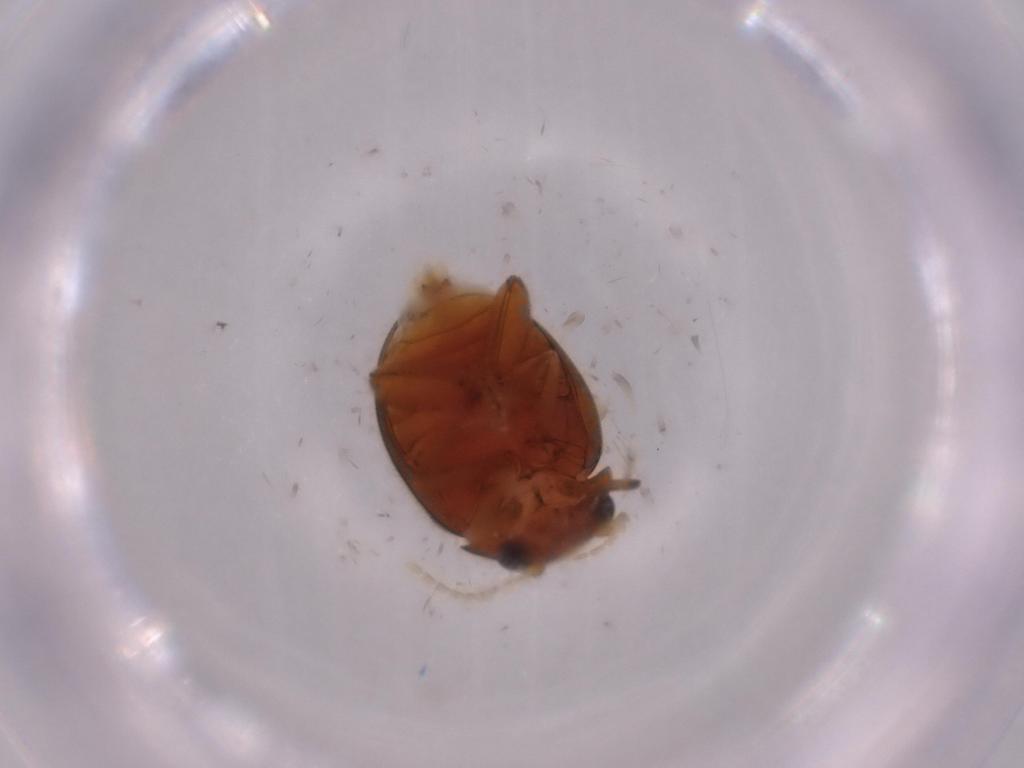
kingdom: Animalia
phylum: Arthropoda
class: Insecta
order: Coleoptera
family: Scirtidae
